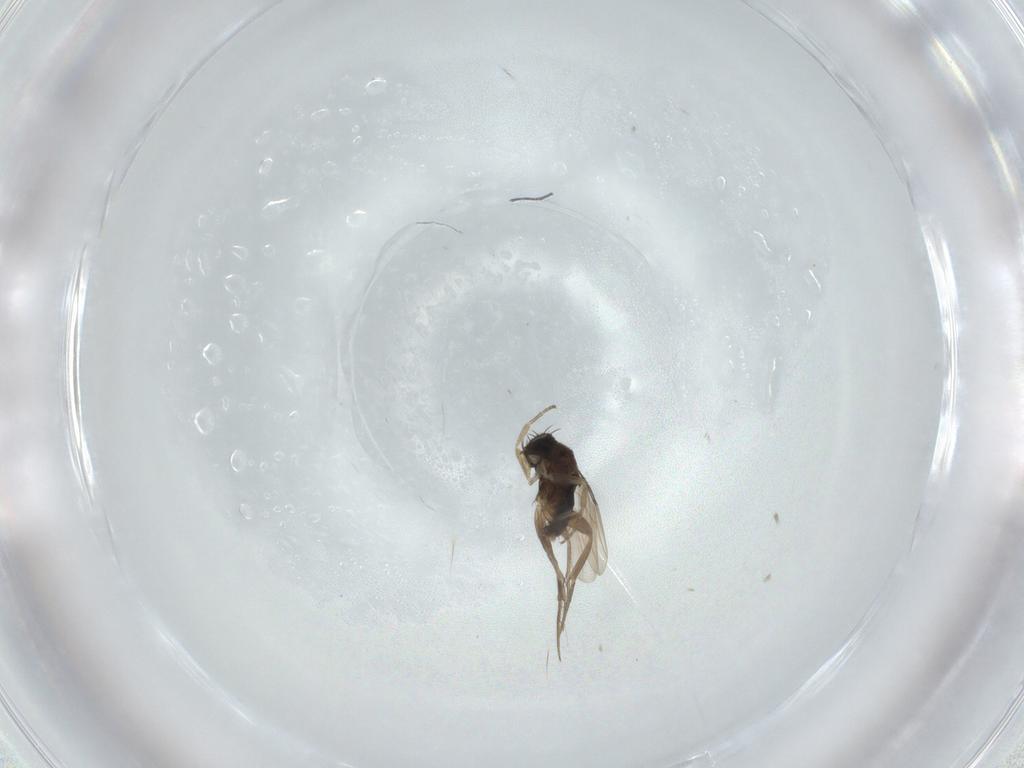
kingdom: Animalia
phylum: Arthropoda
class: Insecta
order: Diptera
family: Phoridae
